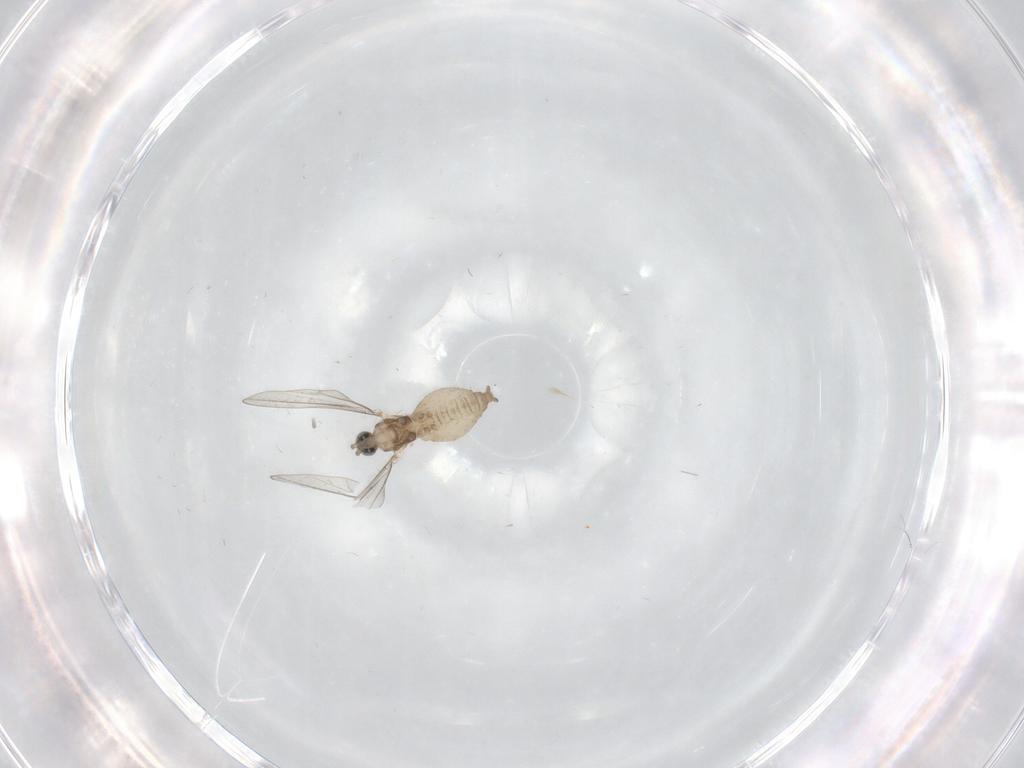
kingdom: Animalia
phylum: Arthropoda
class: Insecta
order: Diptera
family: Cecidomyiidae
